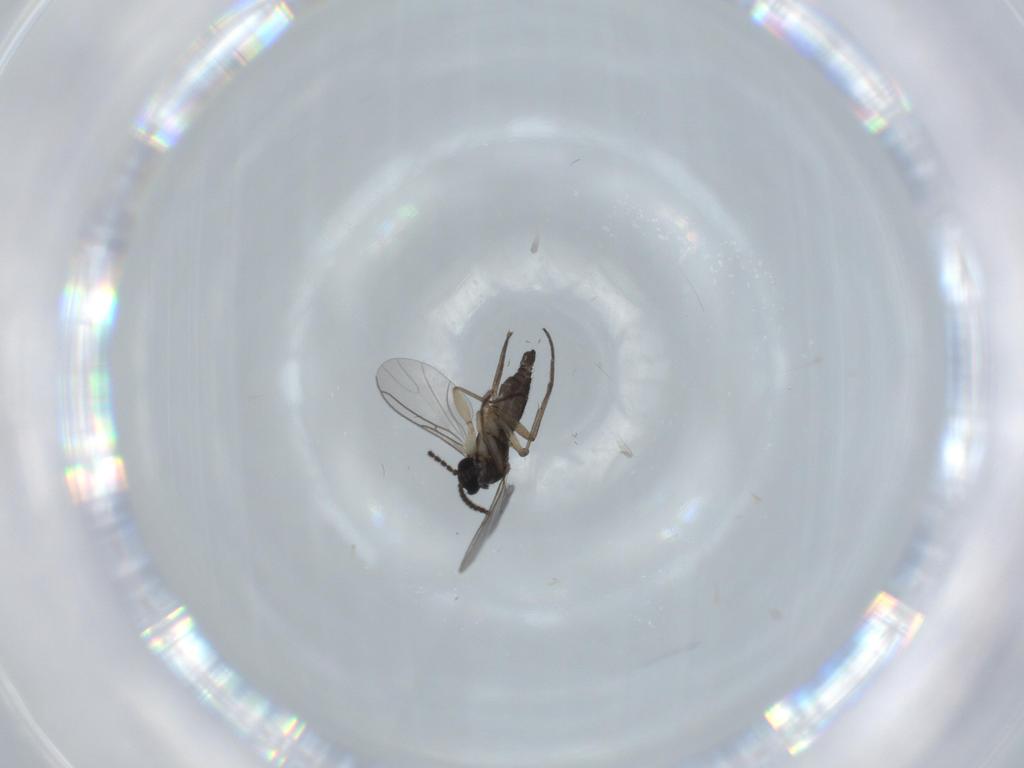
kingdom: Animalia
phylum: Arthropoda
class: Insecta
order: Diptera
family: Sciaridae
